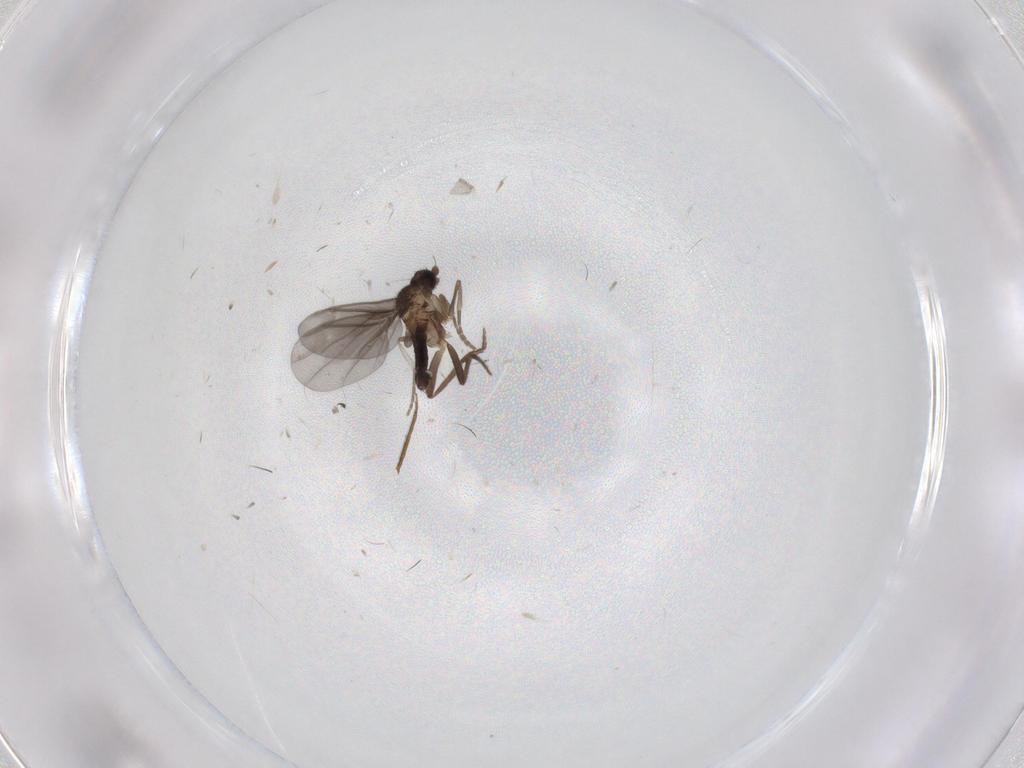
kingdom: Animalia
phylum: Arthropoda
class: Insecta
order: Diptera
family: Phoridae
